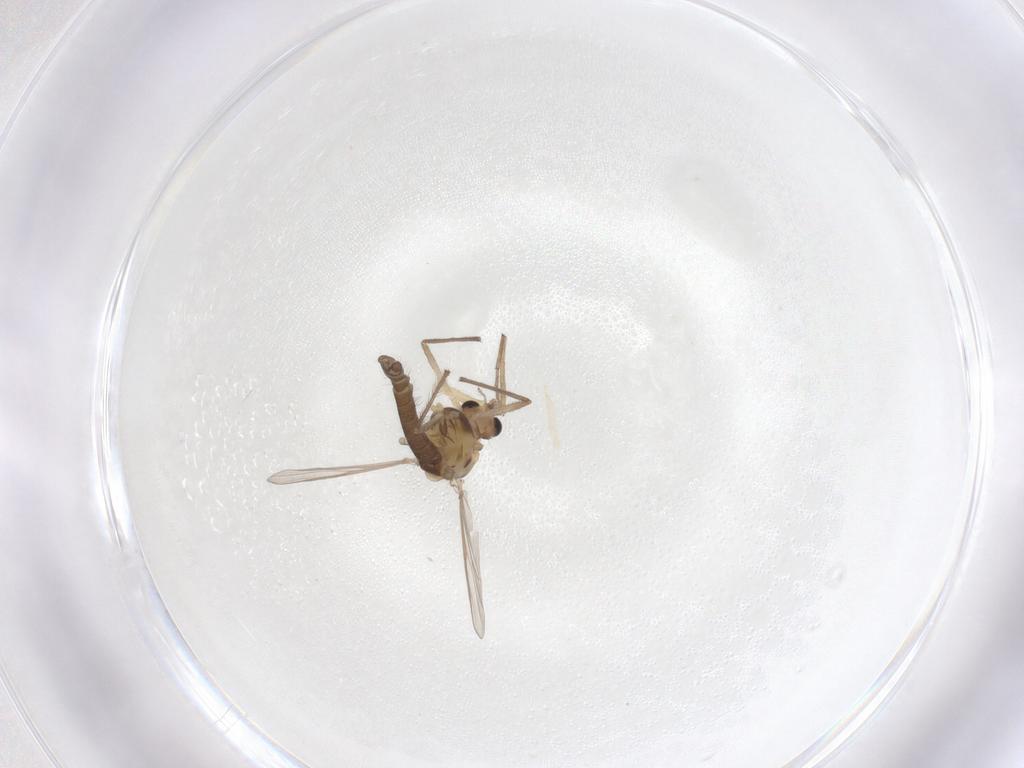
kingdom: Animalia
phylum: Arthropoda
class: Insecta
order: Diptera
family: Chironomidae
